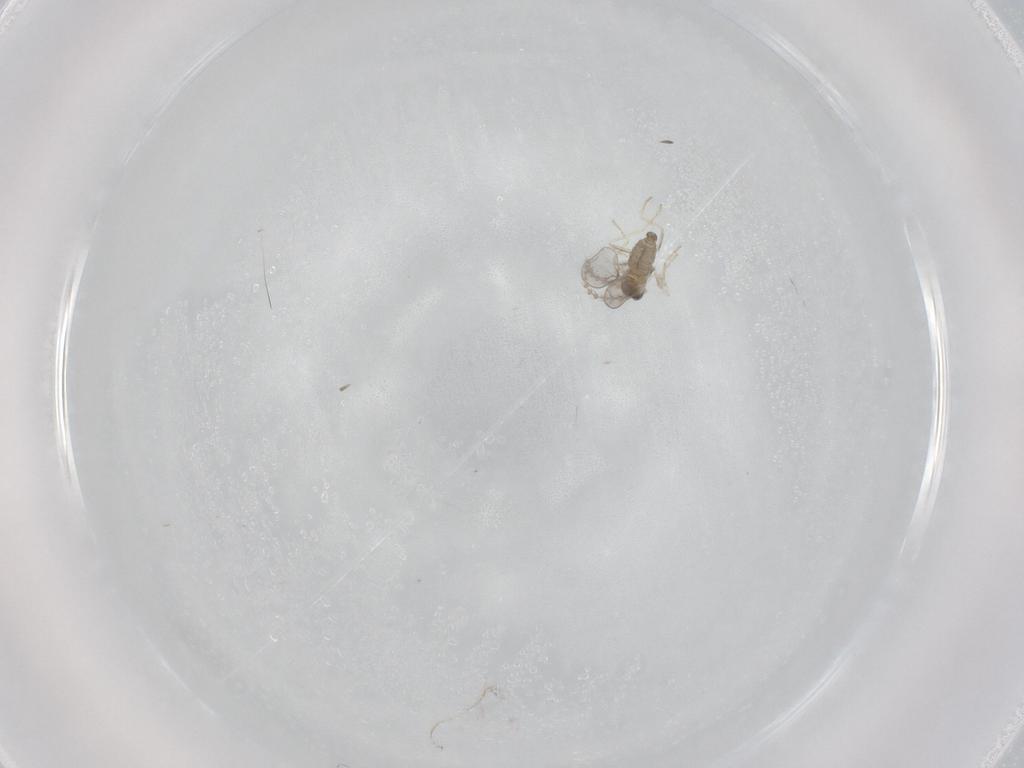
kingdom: Animalia
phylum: Arthropoda
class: Insecta
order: Diptera
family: Cecidomyiidae
